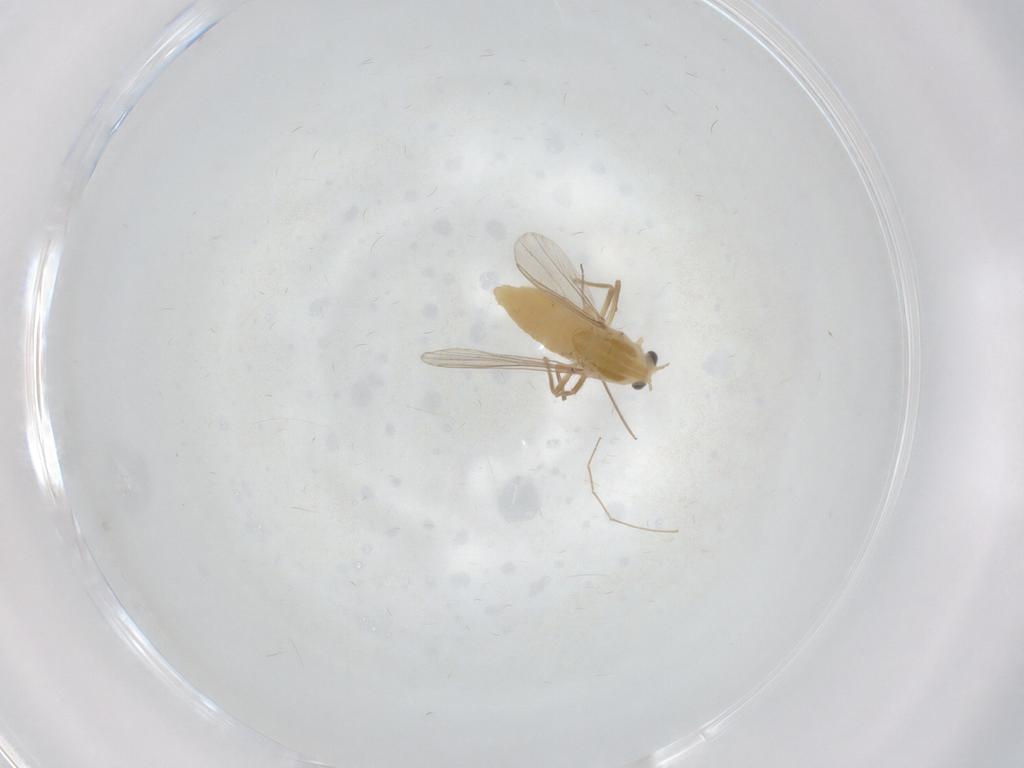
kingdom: Animalia
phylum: Arthropoda
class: Insecta
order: Diptera
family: Chironomidae
